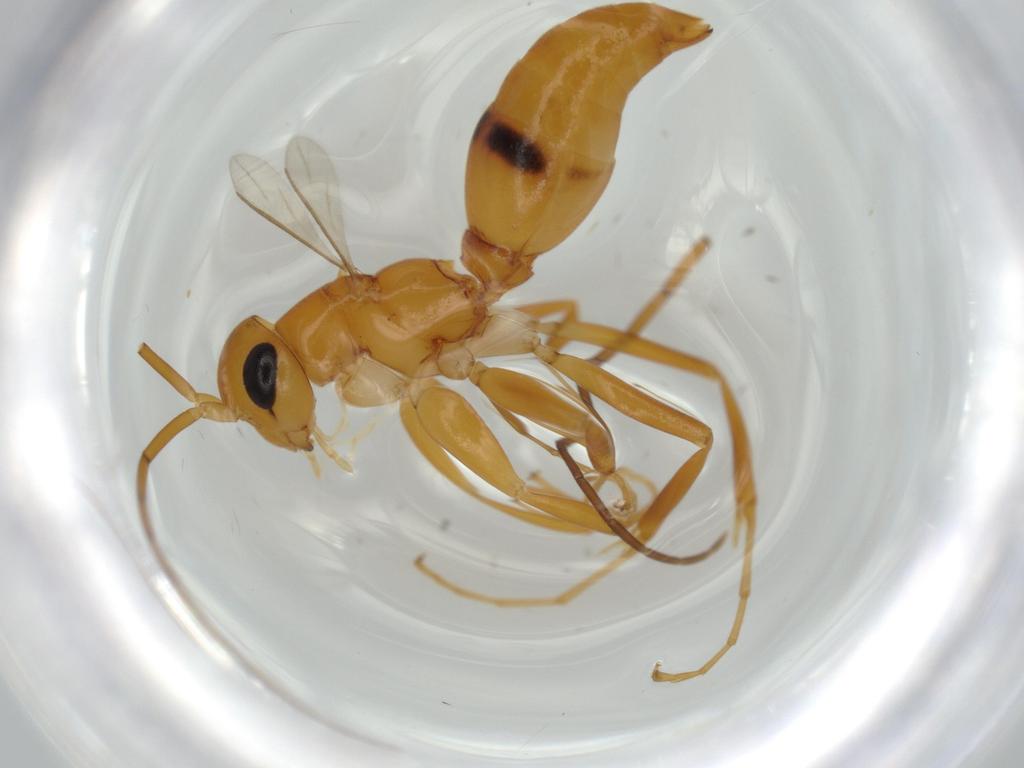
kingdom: Animalia
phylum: Arthropoda
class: Insecta
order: Hymenoptera
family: Rhopalosomatidae
